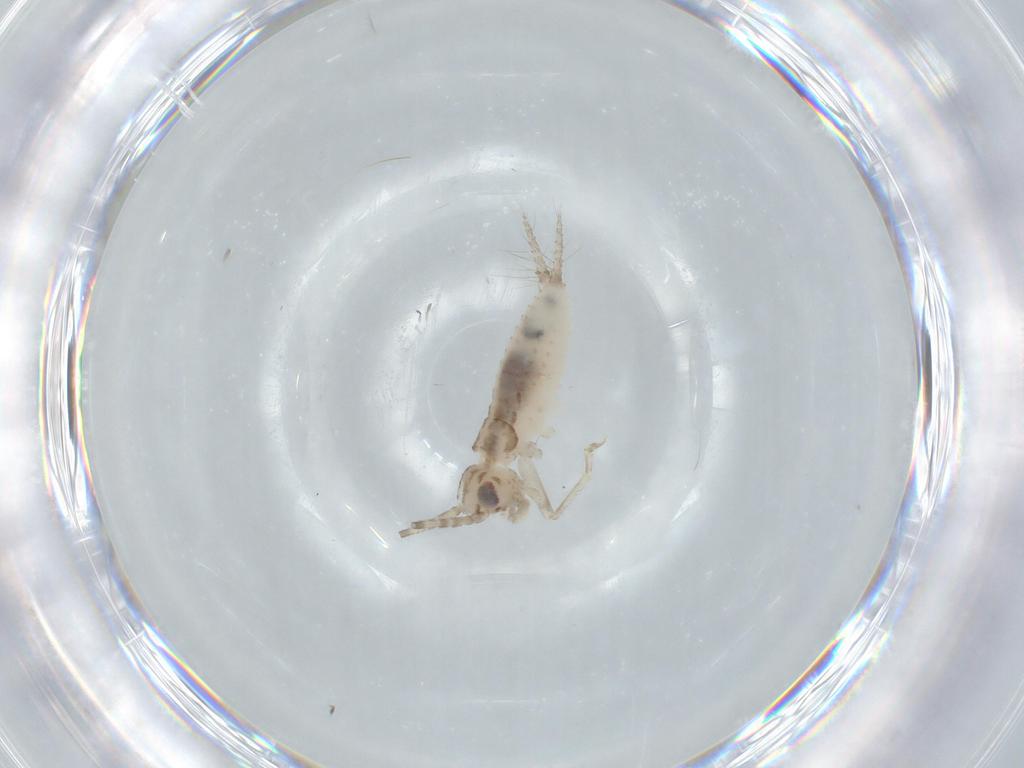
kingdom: Animalia
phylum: Arthropoda
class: Insecta
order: Orthoptera
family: Trigonidiidae
